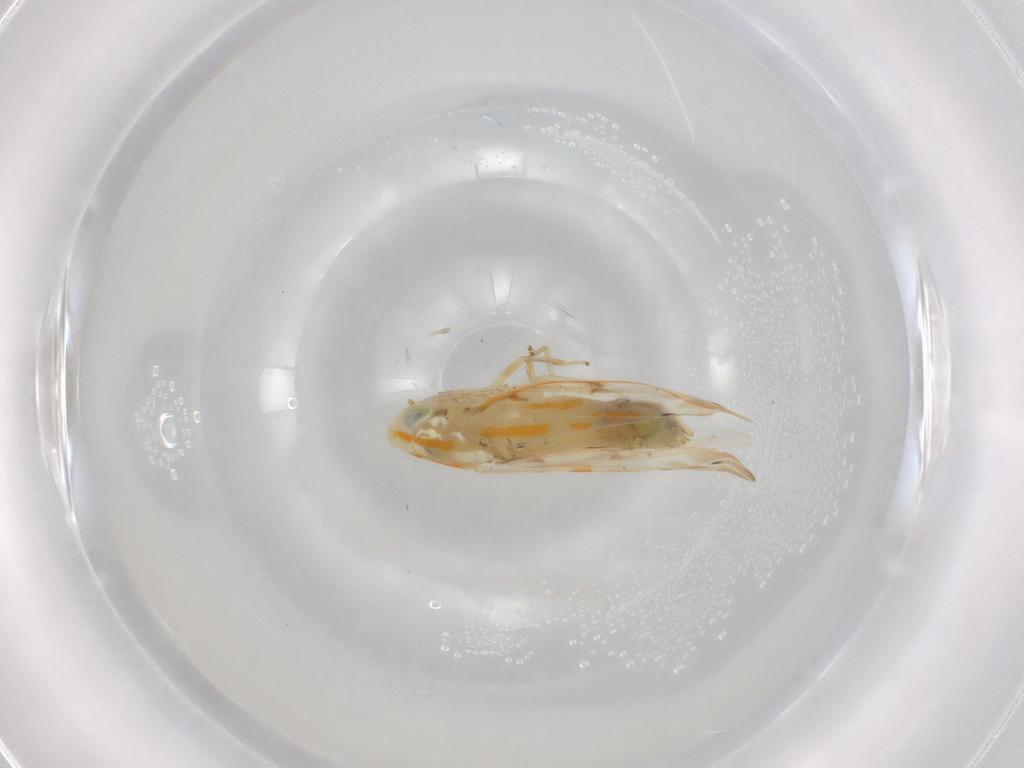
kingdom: Animalia
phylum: Arthropoda
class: Insecta
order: Hemiptera
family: Cicadellidae
